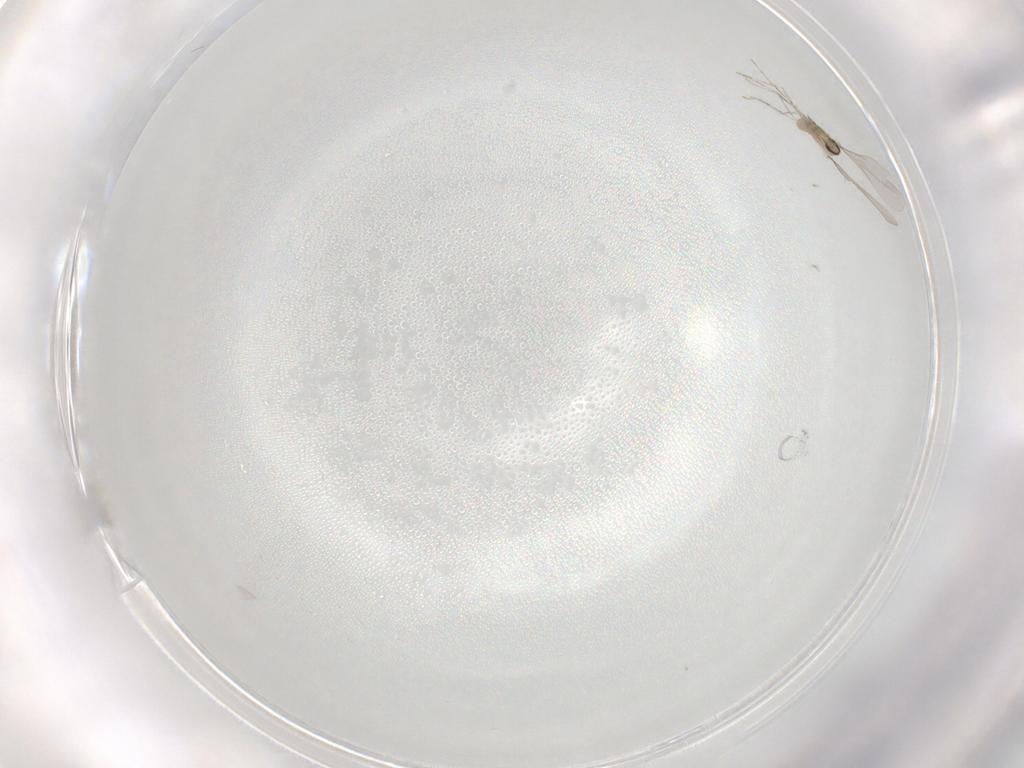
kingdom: Animalia
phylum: Arthropoda
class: Insecta
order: Diptera
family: Cecidomyiidae
